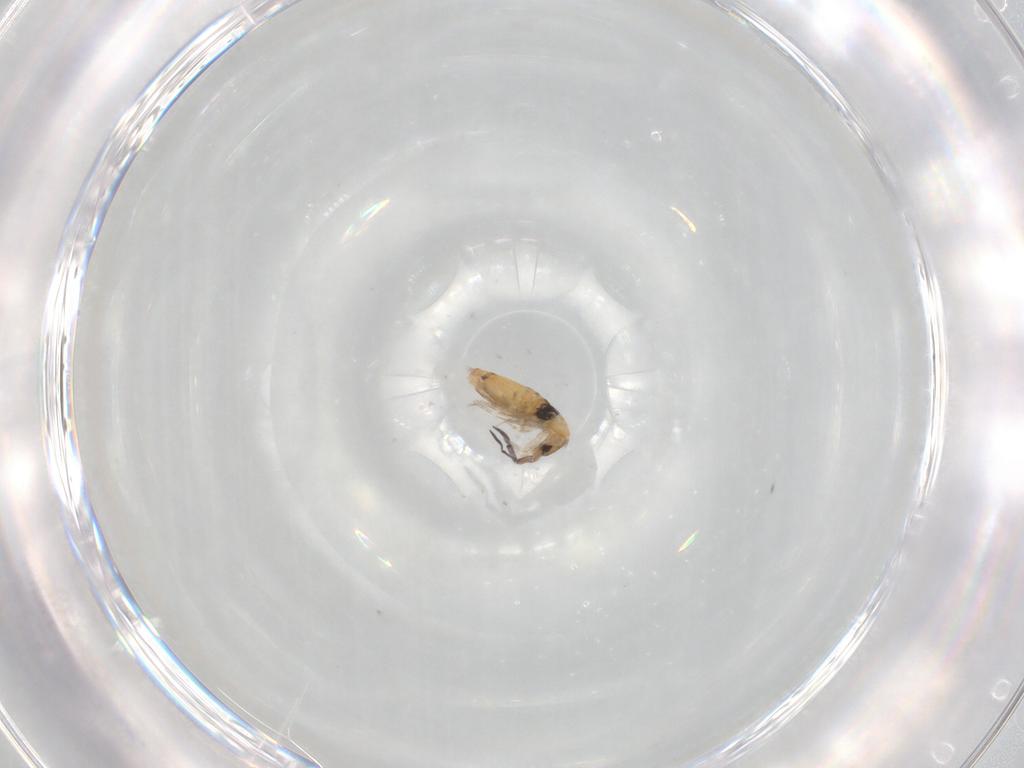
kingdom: Animalia
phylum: Arthropoda
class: Collembola
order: Entomobryomorpha
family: Entomobryidae
